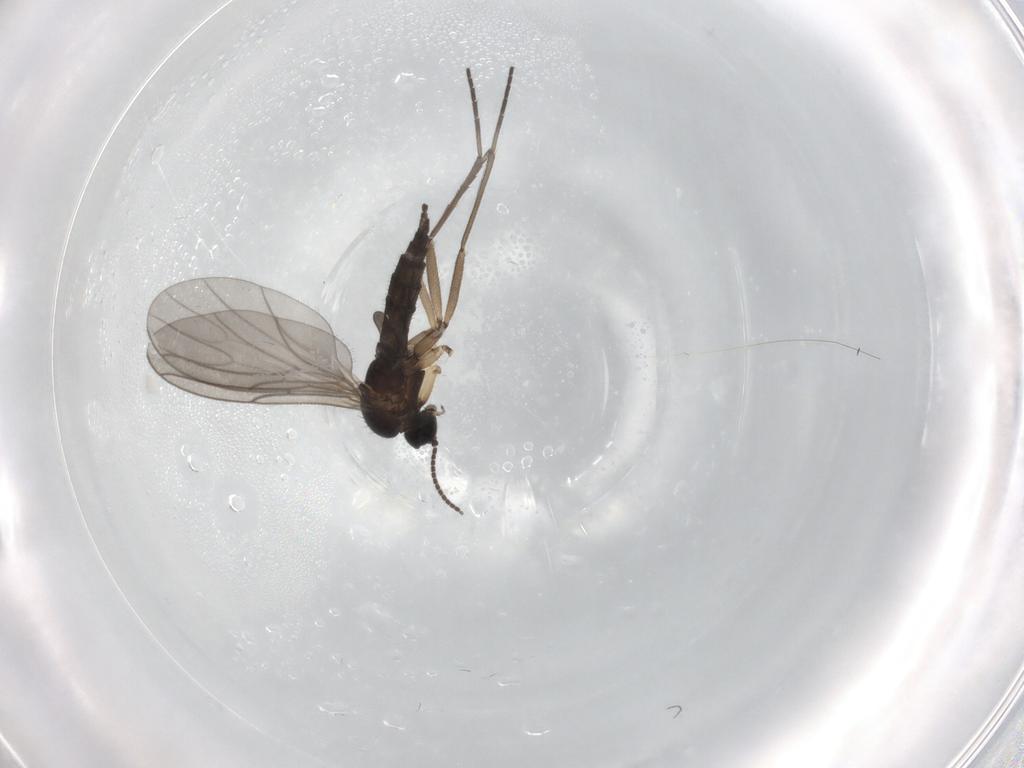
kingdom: Animalia
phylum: Arthropoda
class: Insecta
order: Diptera
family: Sciaridae
